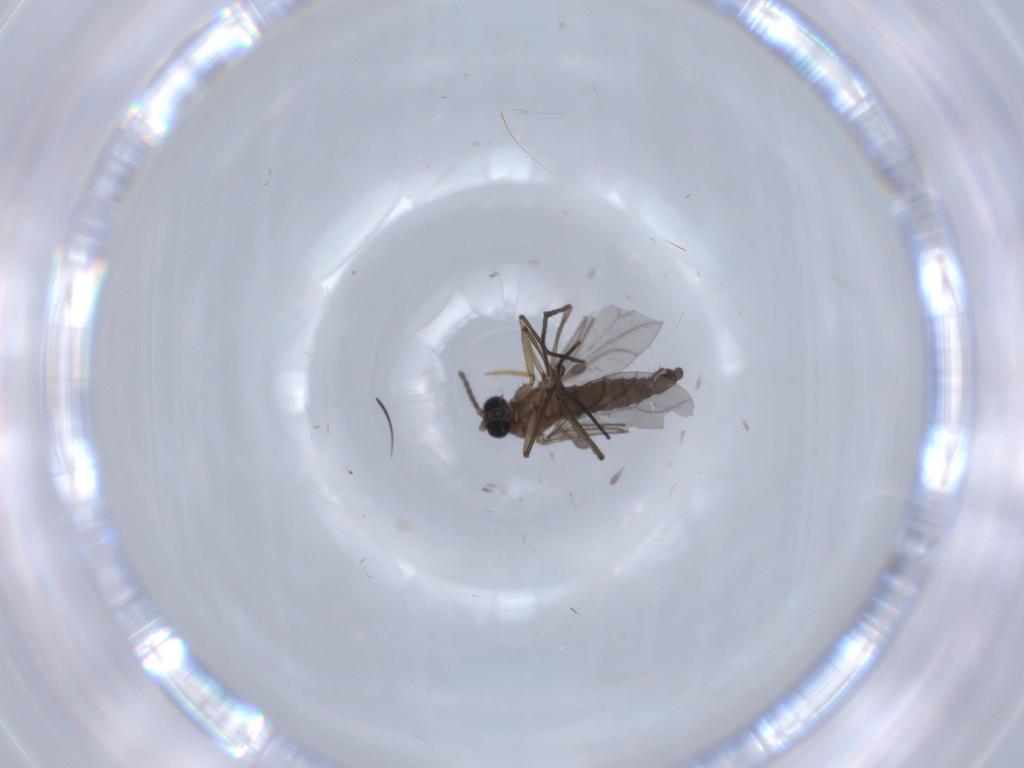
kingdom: Animalia
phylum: Arthropoda
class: Insecta
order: Diptera
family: Sciaridae
